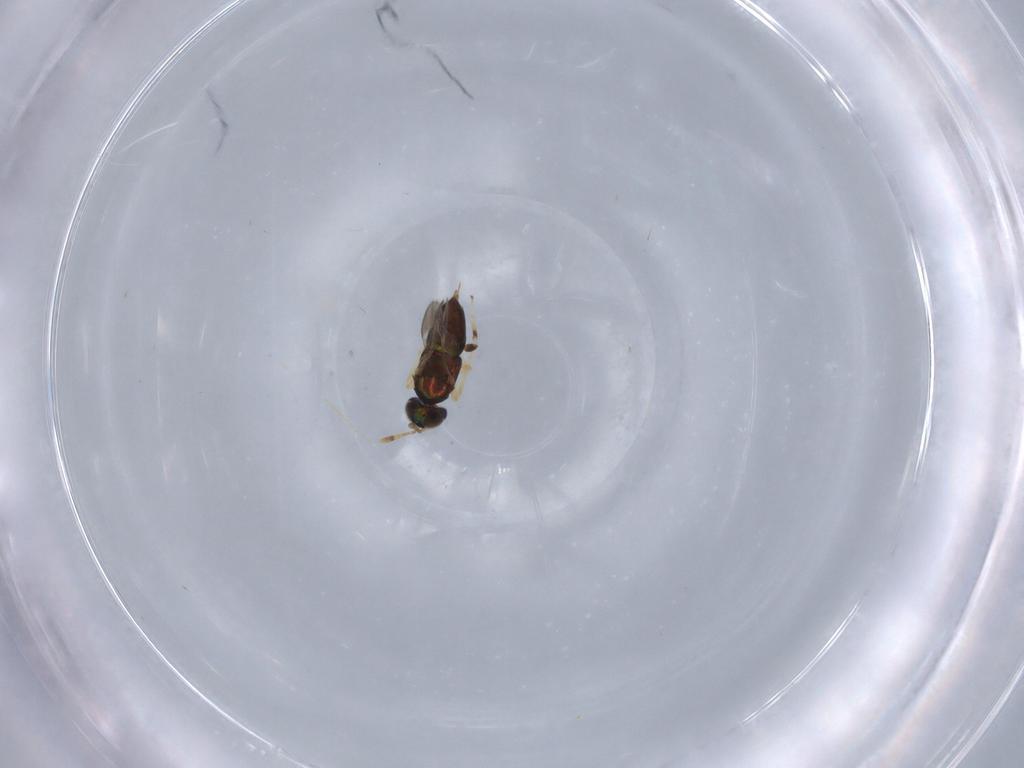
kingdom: Animalia
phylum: Arthropoda
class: Insecta
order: Hymenoptera
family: Encyrtidae
